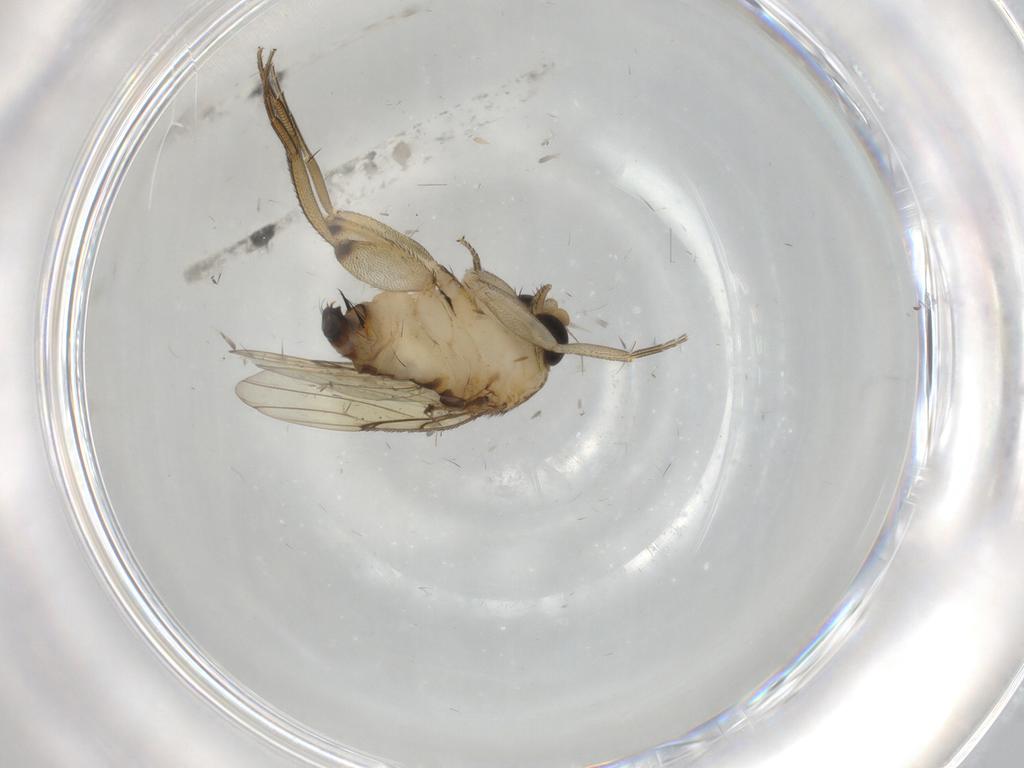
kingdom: Animalia
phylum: Arthropoda
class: Insecta
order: Diptera
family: Phoridae
